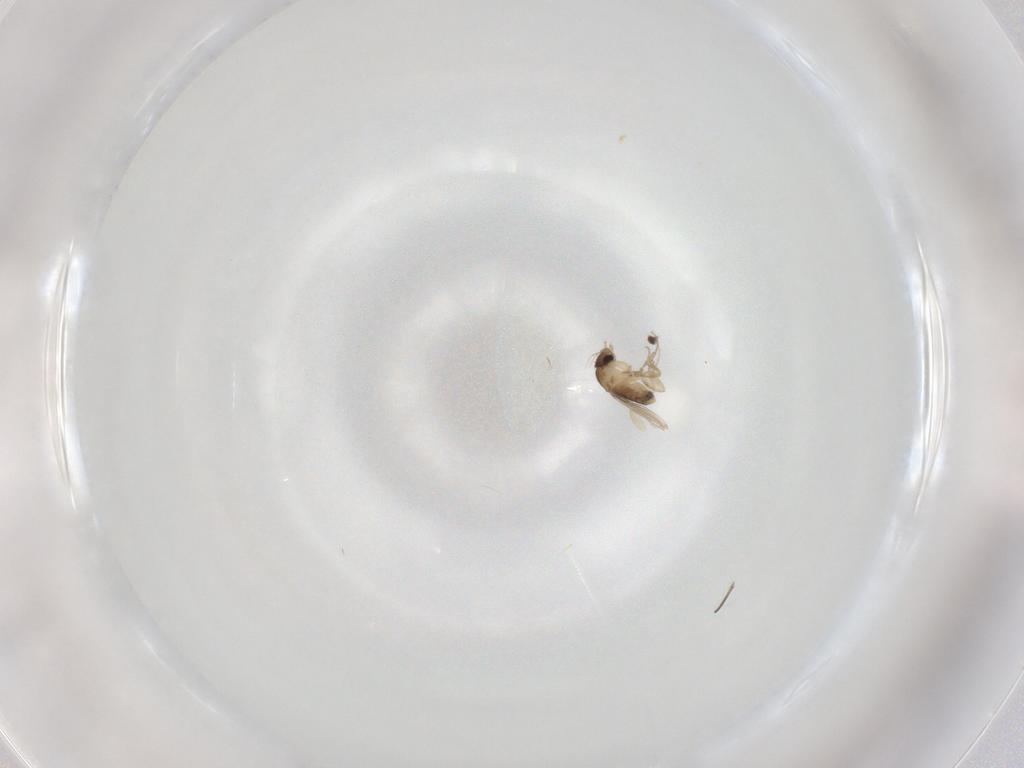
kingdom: Animalia
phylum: Arthropoda
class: Insecta
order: Diptera
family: Phoridae
